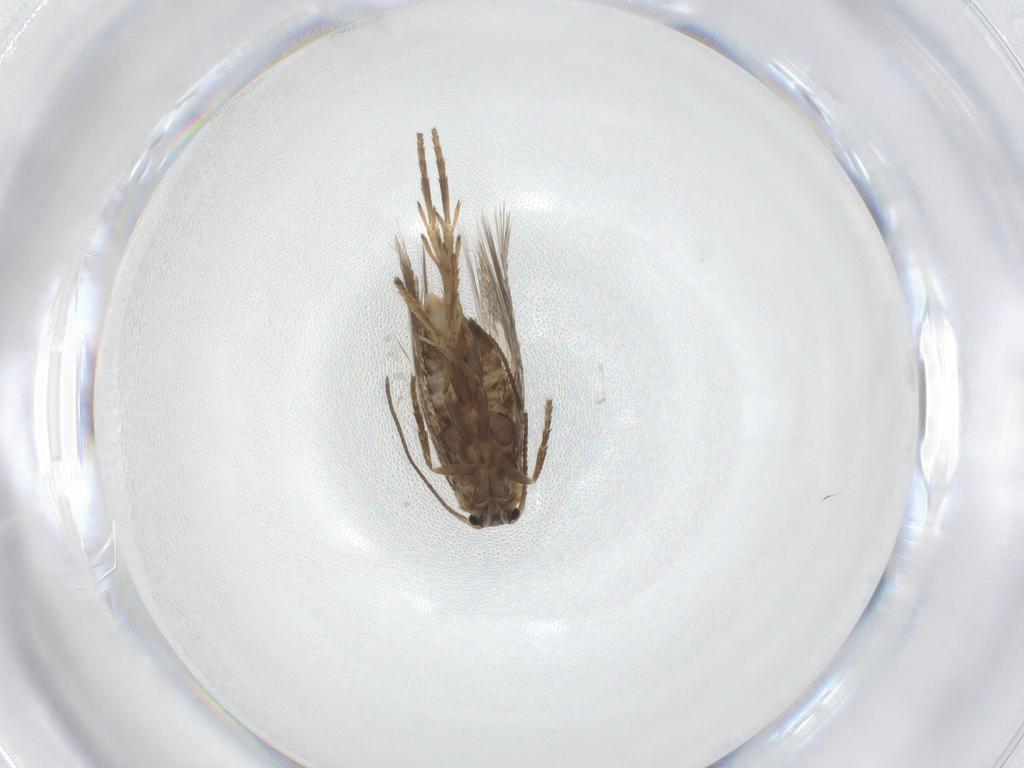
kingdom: Animalia
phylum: Arthropoda
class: Insecta
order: Lepidoptera
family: Nepticulidae
